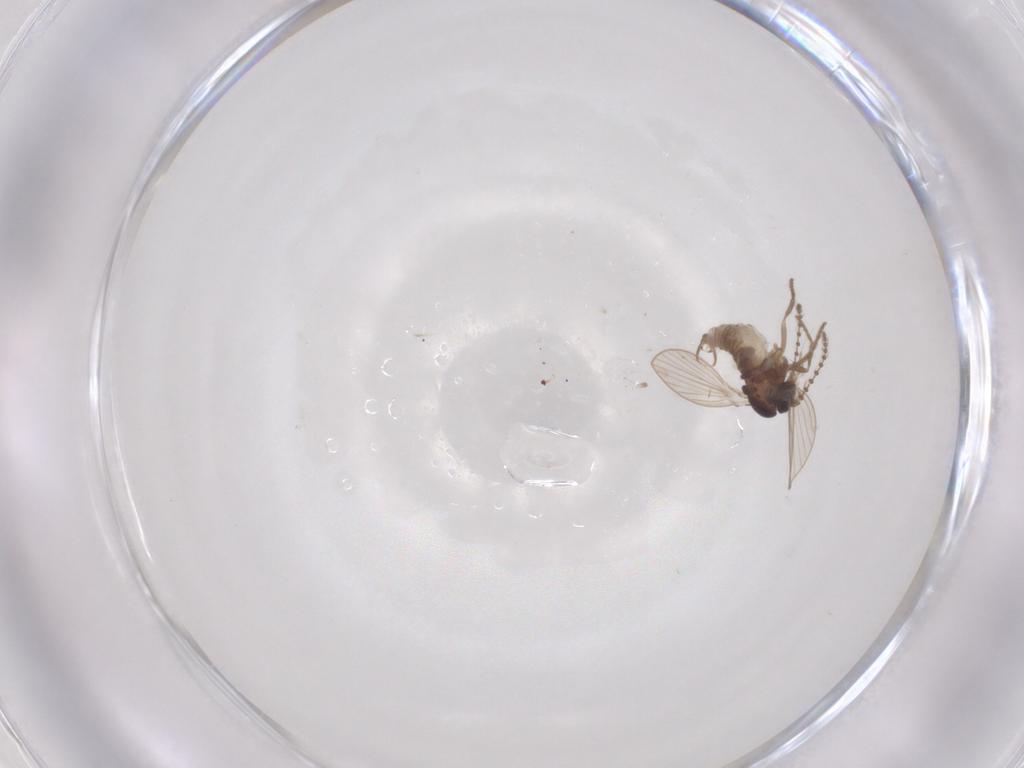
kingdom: Animalia
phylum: Arthropoda
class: Insecta
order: Diptera
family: Psychodidae
